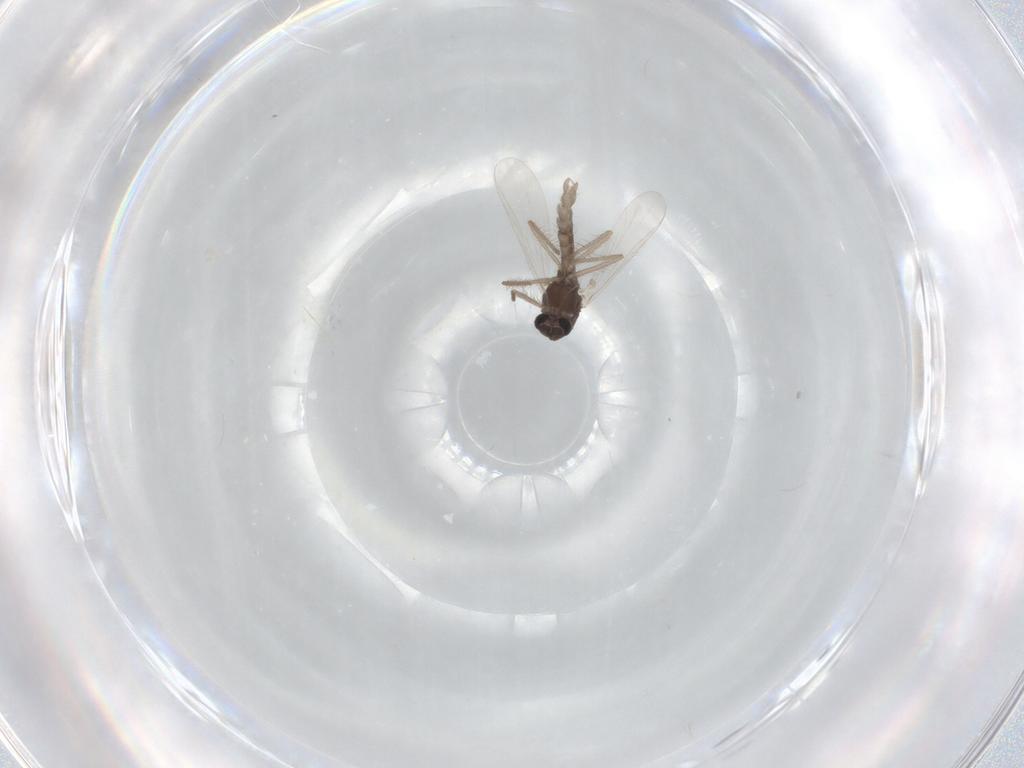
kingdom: Animalia
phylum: Arthropoda
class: Insecta
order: Diptera
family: Chironomidae
